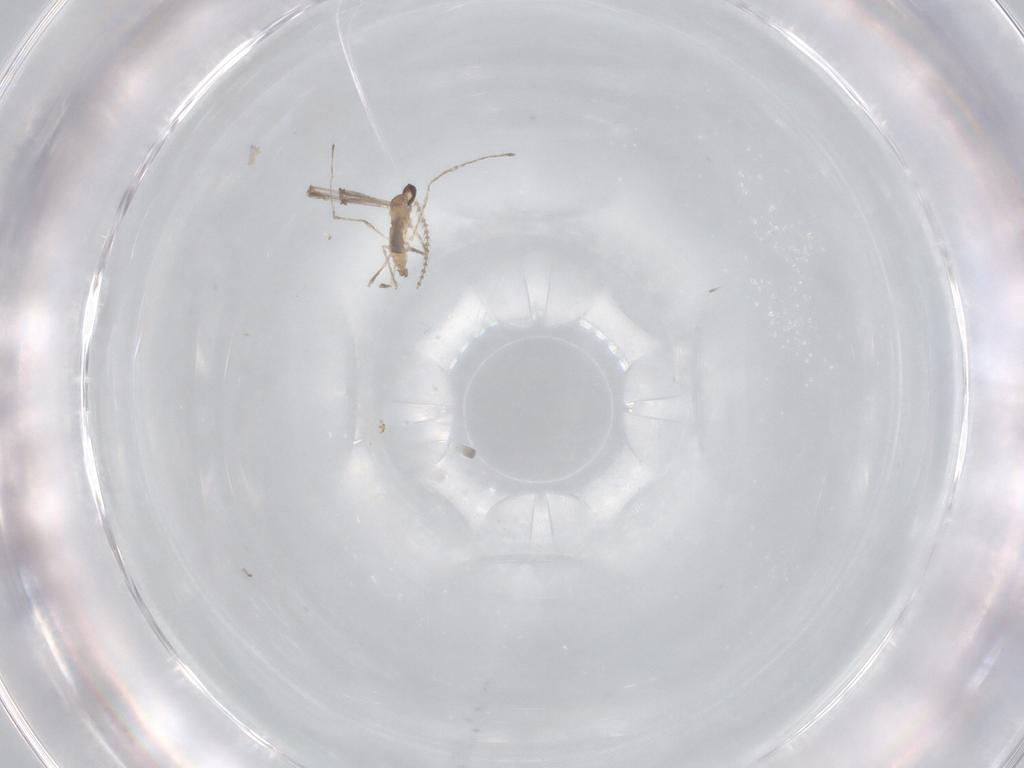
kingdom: Animalia
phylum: Arthropoda
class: Insecta
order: Diptera
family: Cecidomyiidae
